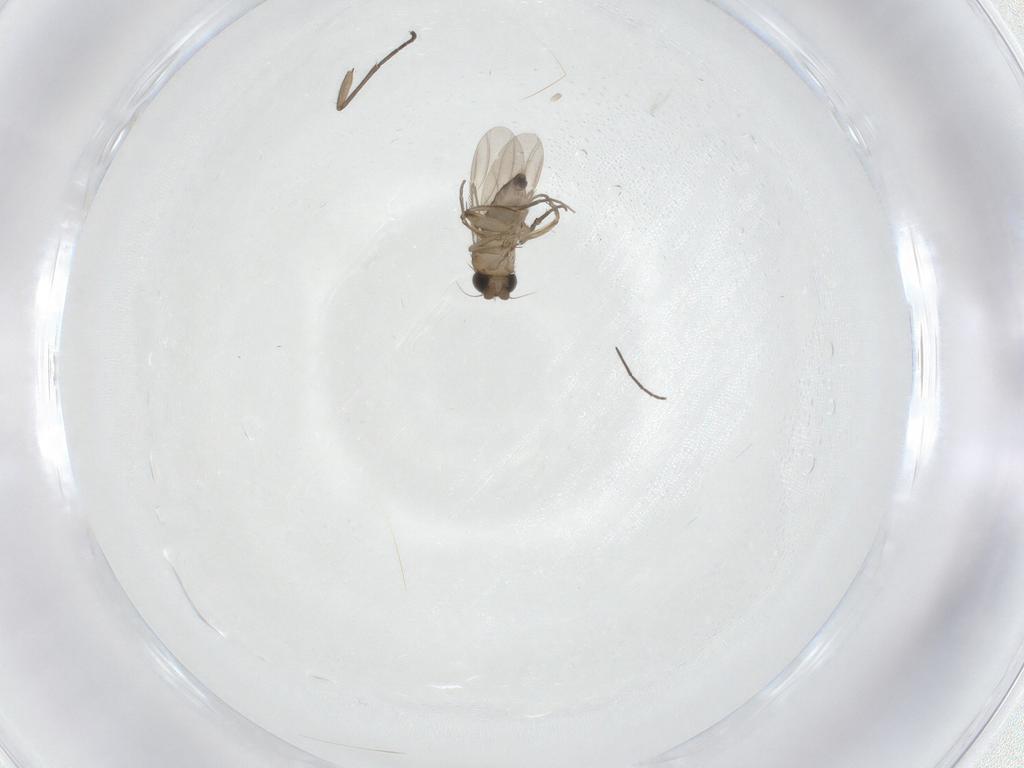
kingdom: Animalia
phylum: Arthropoda
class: Insecta
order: Diptera
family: Phoridae
